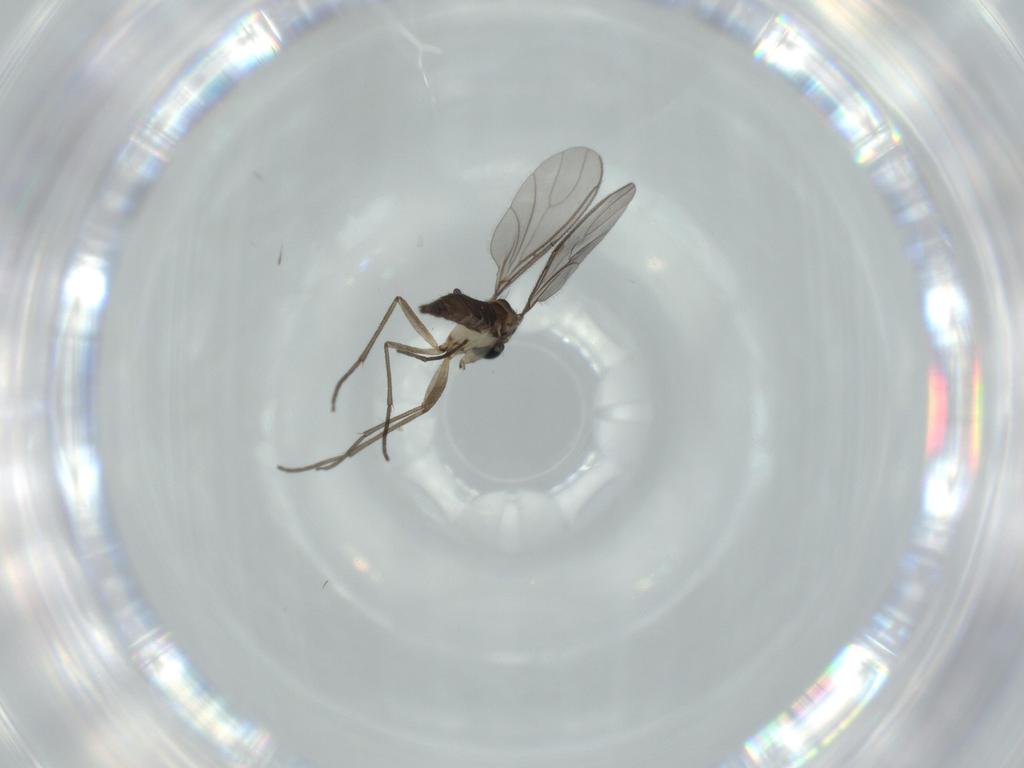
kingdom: Animalia
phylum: Arthropoda
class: Insecta
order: Diptera
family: Sciaridae
